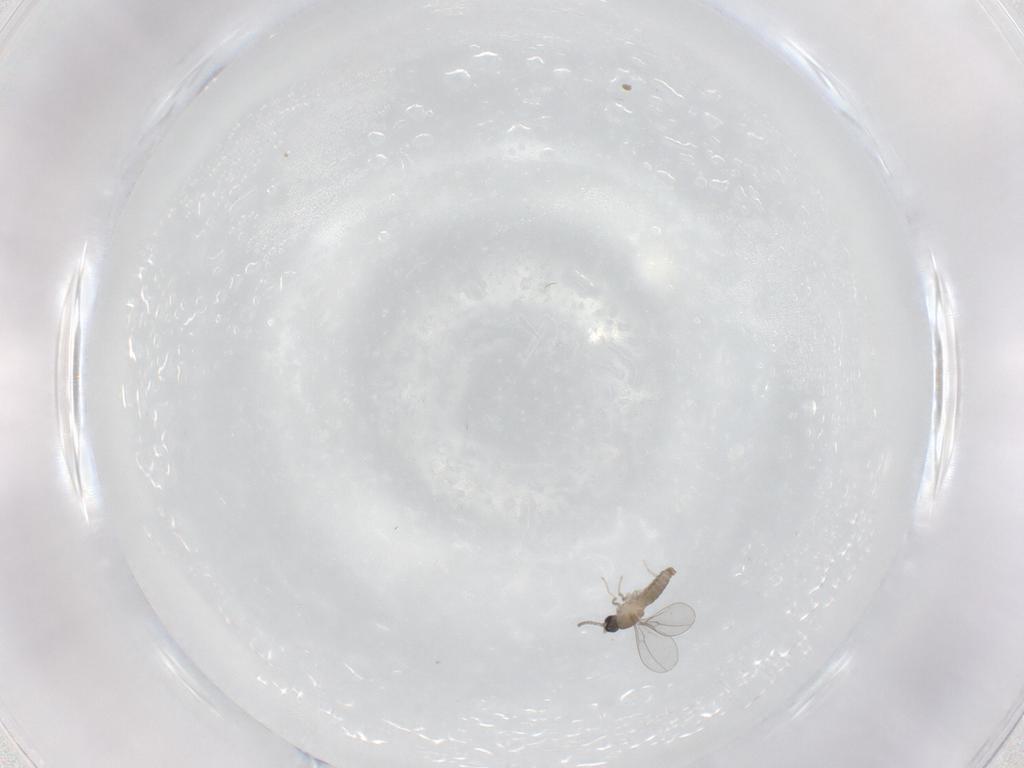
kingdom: Animalia
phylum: Arthropoda
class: Insecta
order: Diptera
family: Cecidomyiidae
